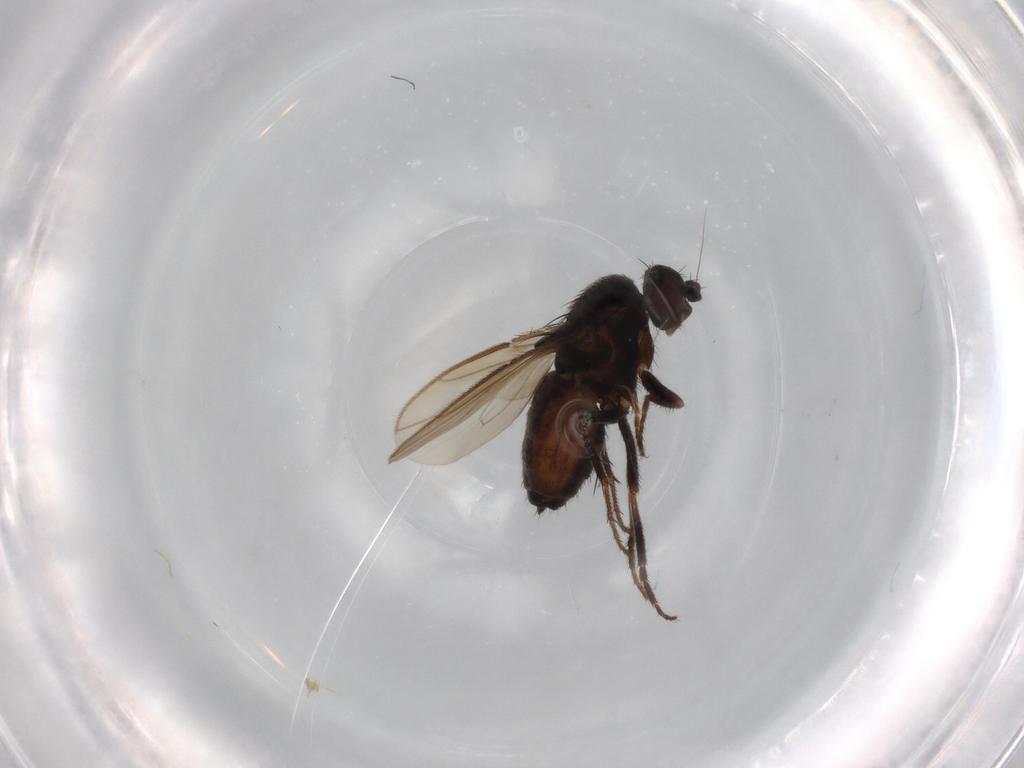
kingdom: Animalia
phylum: Arthropoda
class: Insecta
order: Diptera
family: Sphaeroceridae
